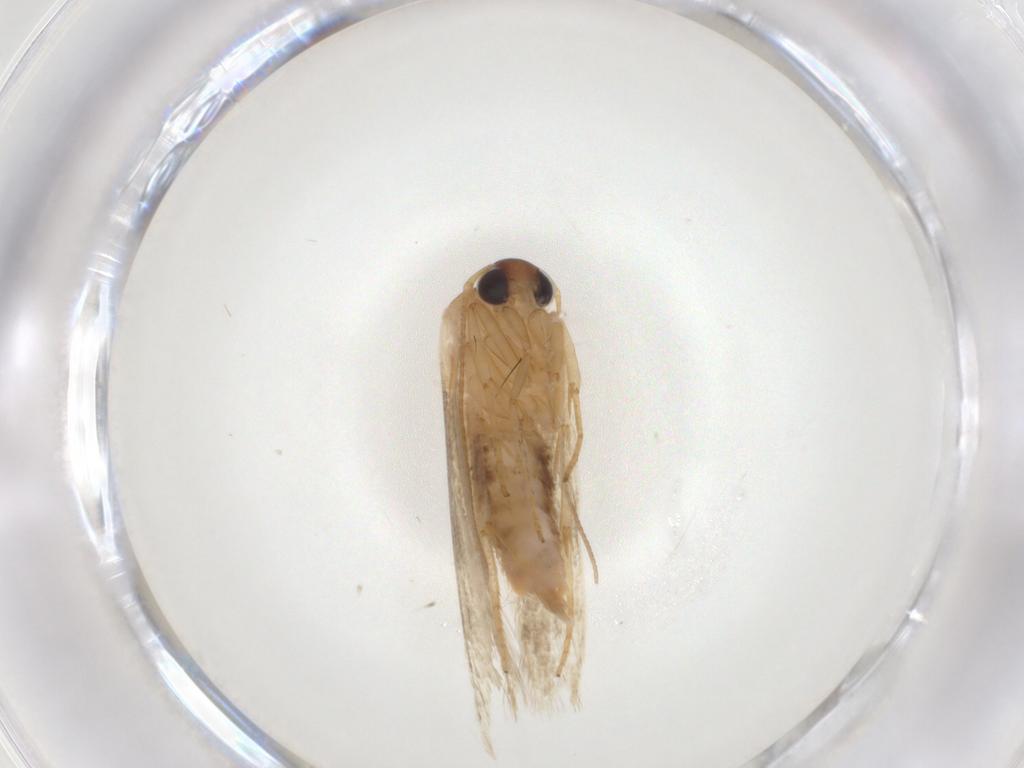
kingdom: Animalia
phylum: Arthropoda
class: Insecta
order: Lepidoptera
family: Blastobasidae
